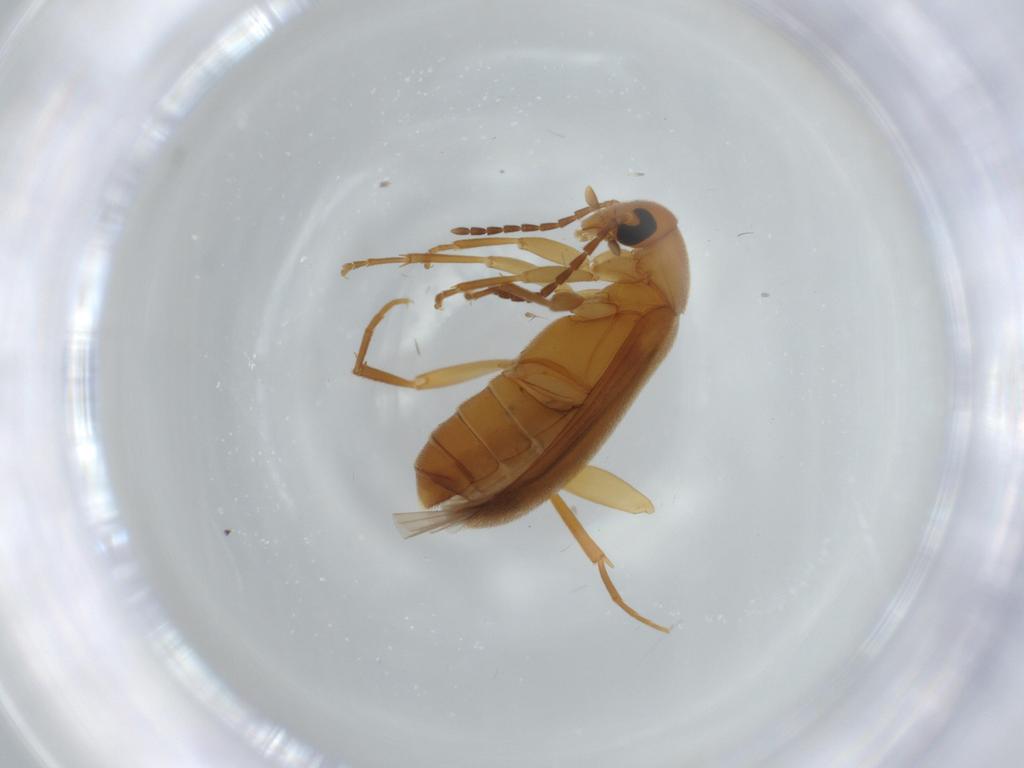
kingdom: Animalia
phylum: Arthropoda
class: Insecta
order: Coleoptera
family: Scraptiidae
